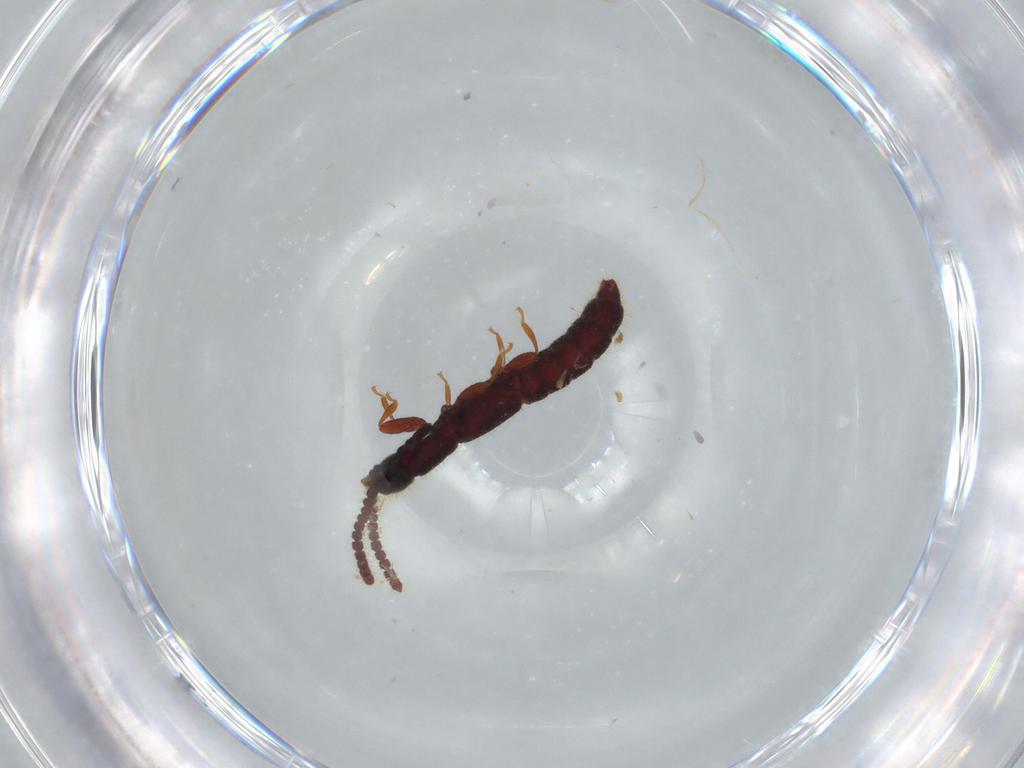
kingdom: Animalia
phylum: Arthropoda
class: Insecta
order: Coleoptera
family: Staphylinidae
